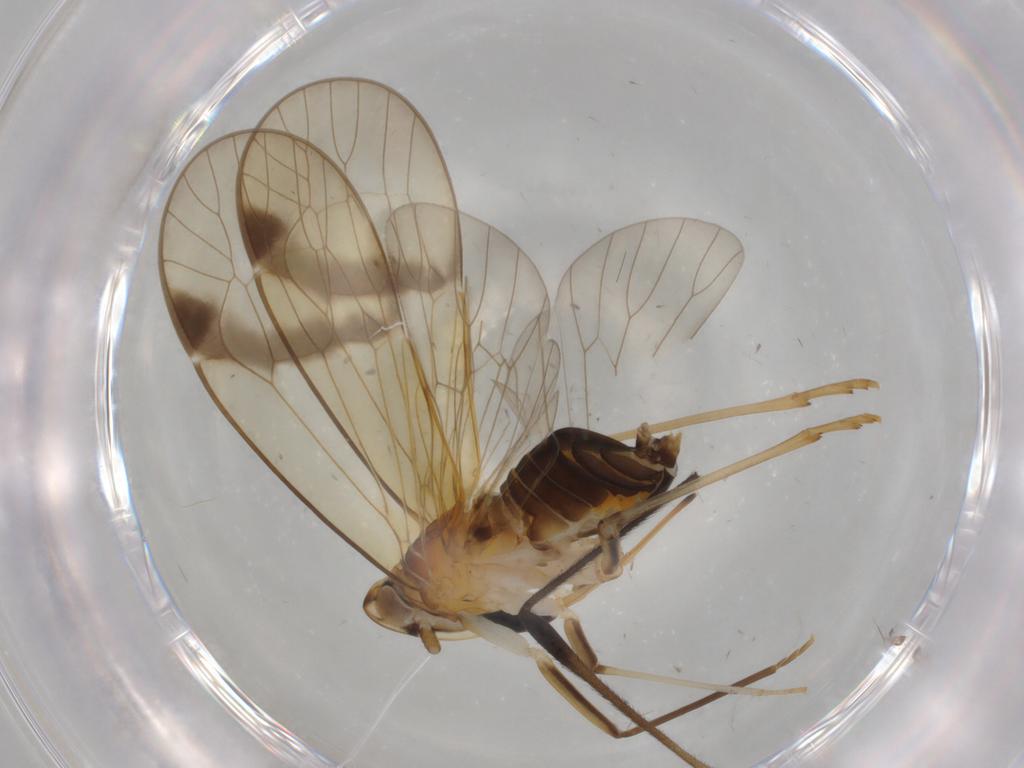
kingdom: Animalia
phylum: Arthropoda
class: Insecta
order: Hemiptera
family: Kinnaridae
